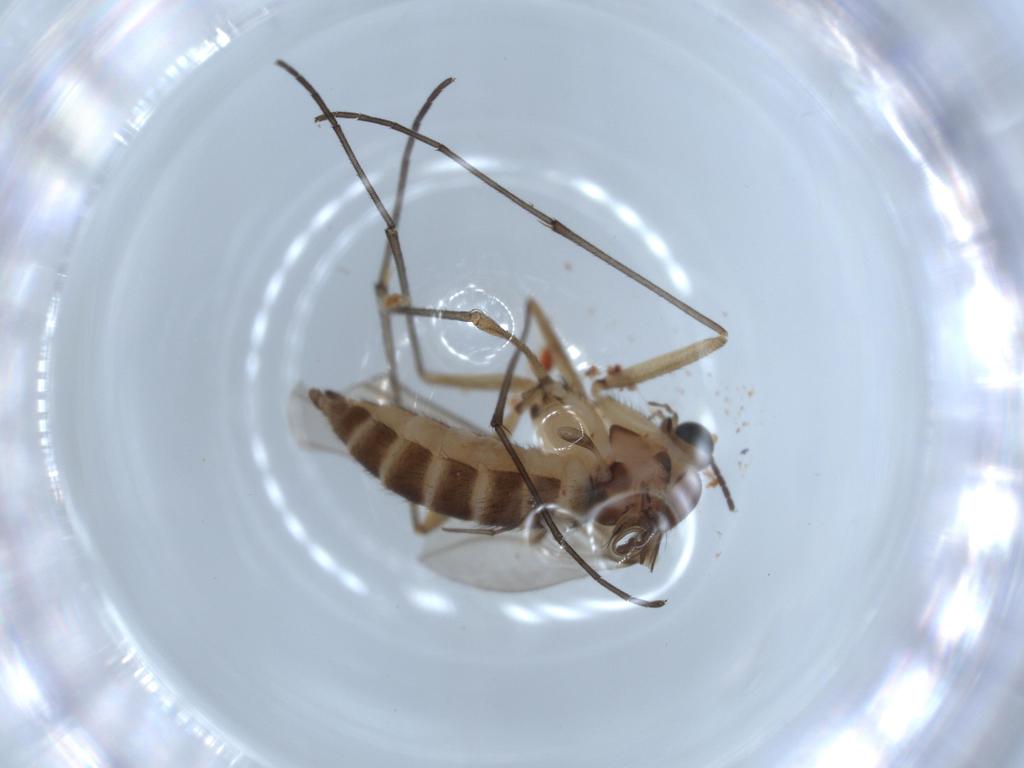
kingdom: Animalia
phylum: Arthropoda
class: Insecta
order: Diptera
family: Sciaridae
